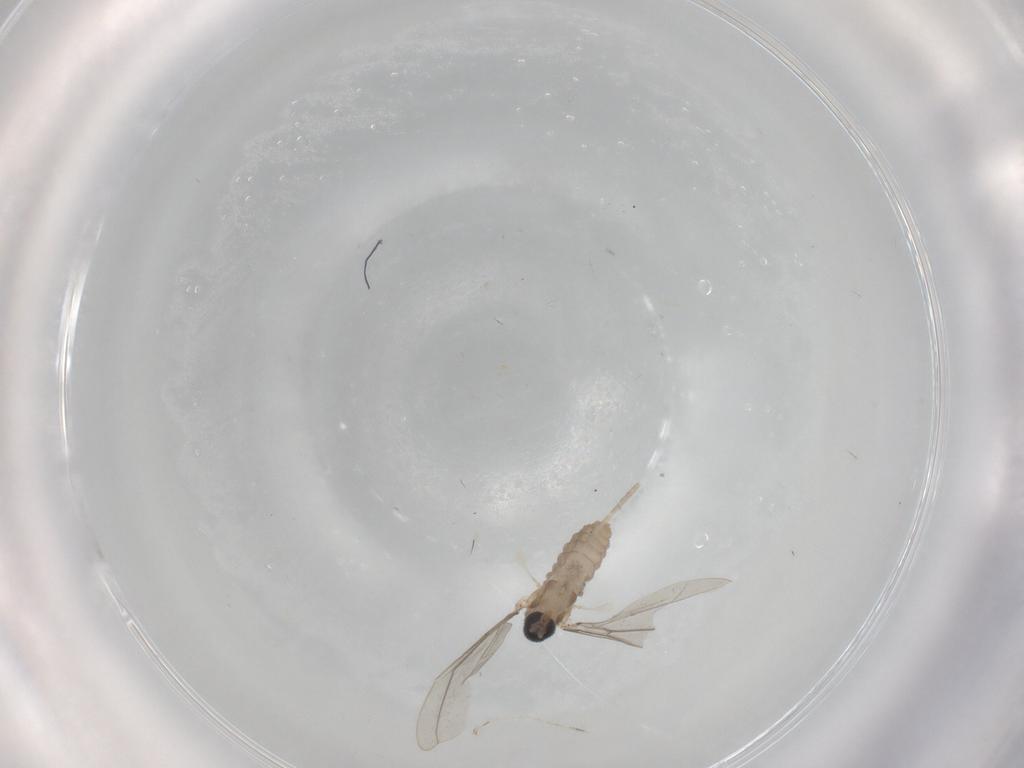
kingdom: Animalia
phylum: Arthropoda
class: Insecta
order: Diptera
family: Cecidomyiidae
